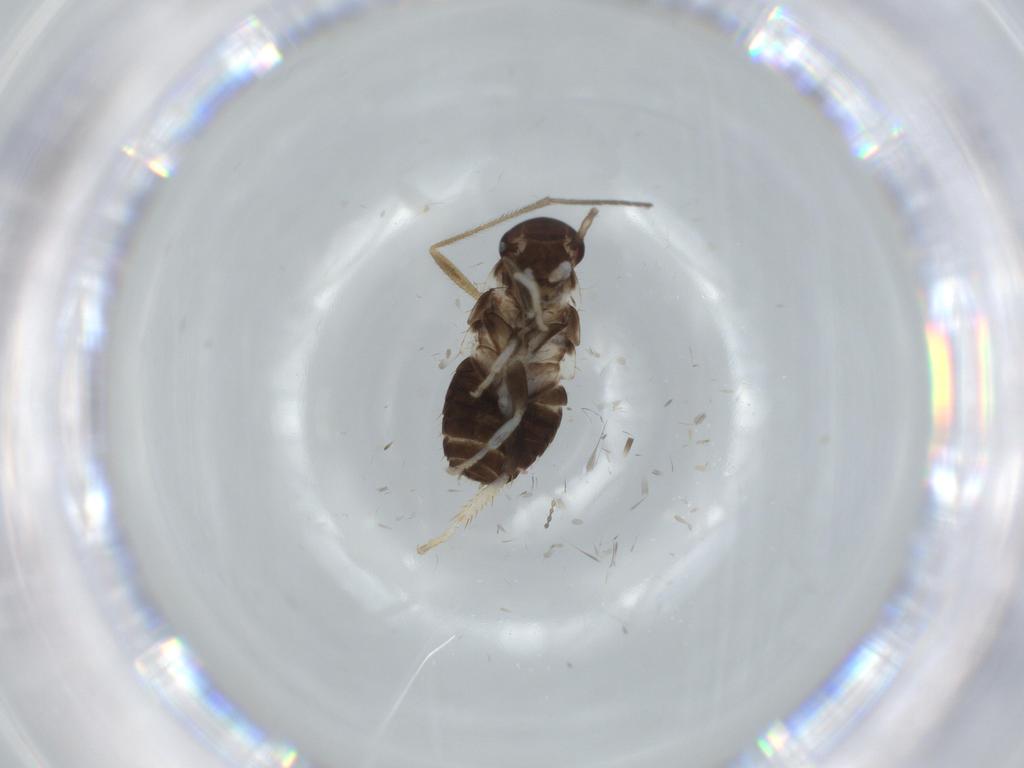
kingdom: Animalia
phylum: Arthropoda
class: Insecta
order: Blattodea
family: Ectobiidae
